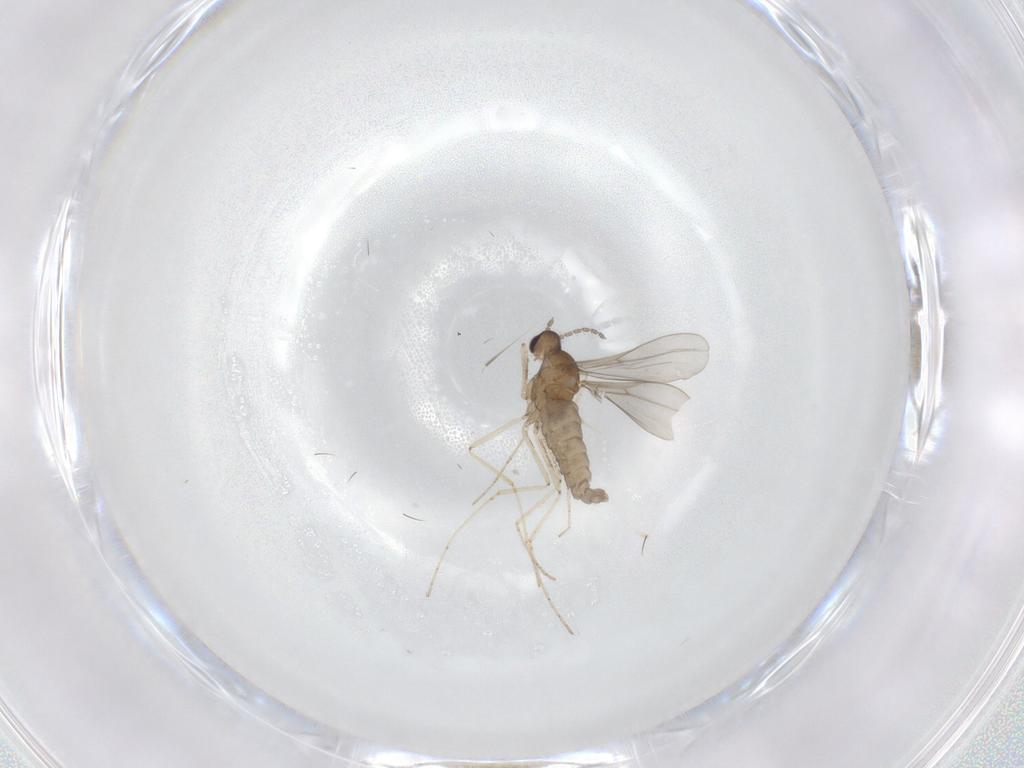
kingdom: Animalia
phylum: Arthropoda
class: Insecta
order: Diptera
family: Cecidomyiidae
